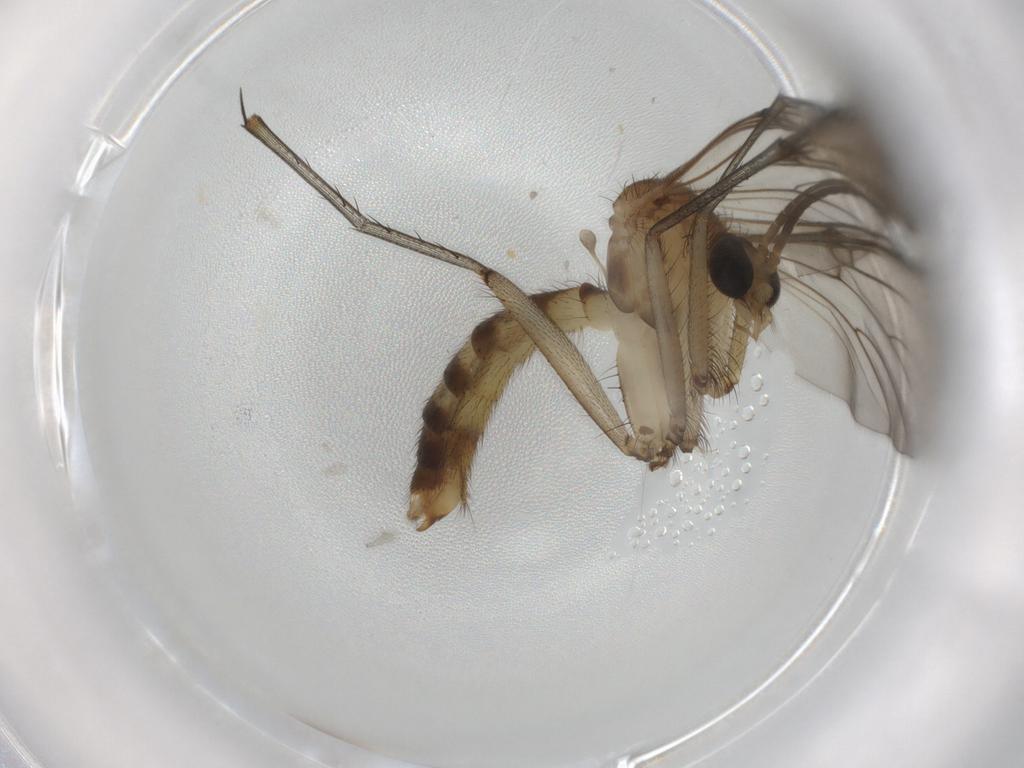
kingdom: Animalia
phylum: Arthropoda
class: Insecta
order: Diptera
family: Mycetophilidae
